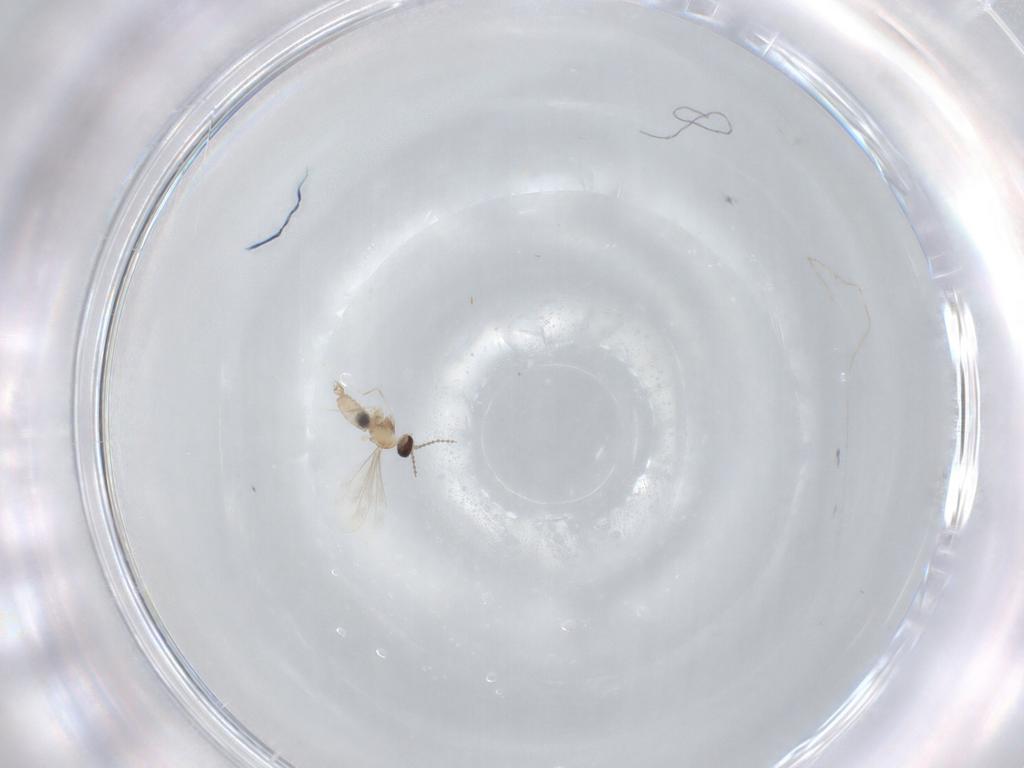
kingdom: Animalia
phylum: Arthropoda
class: Insecta
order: Diptera
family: Cecidomyiidae
